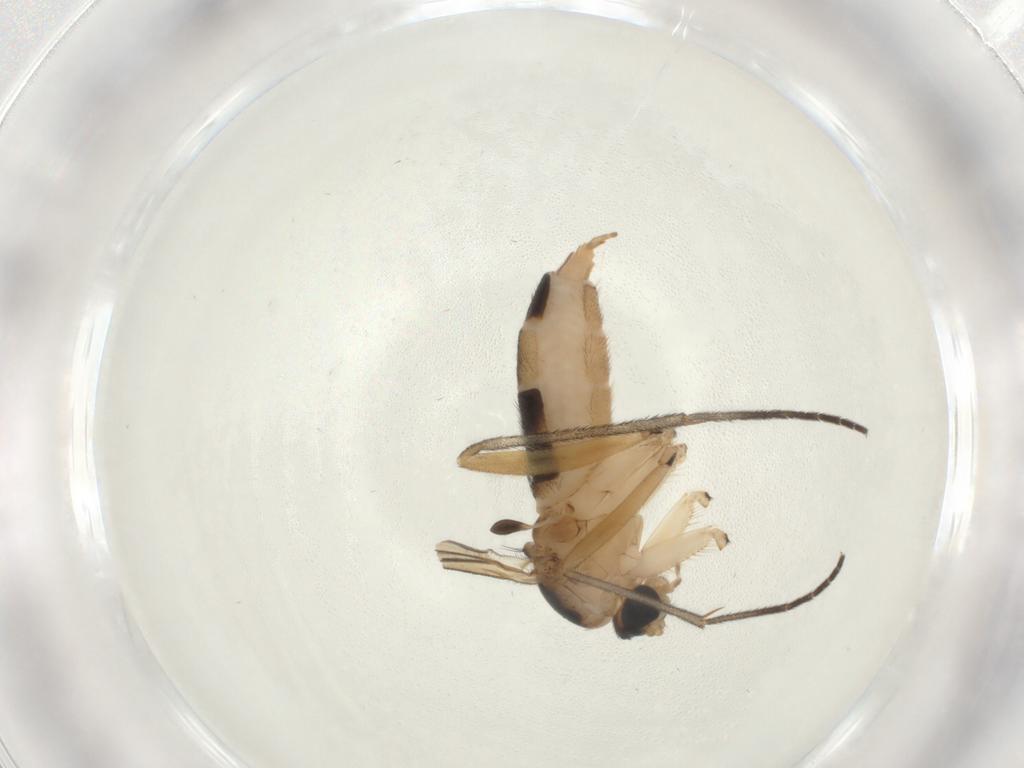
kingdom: Animalia
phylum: Arthropoda
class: Insecta
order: Diptera
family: Sciaridae
